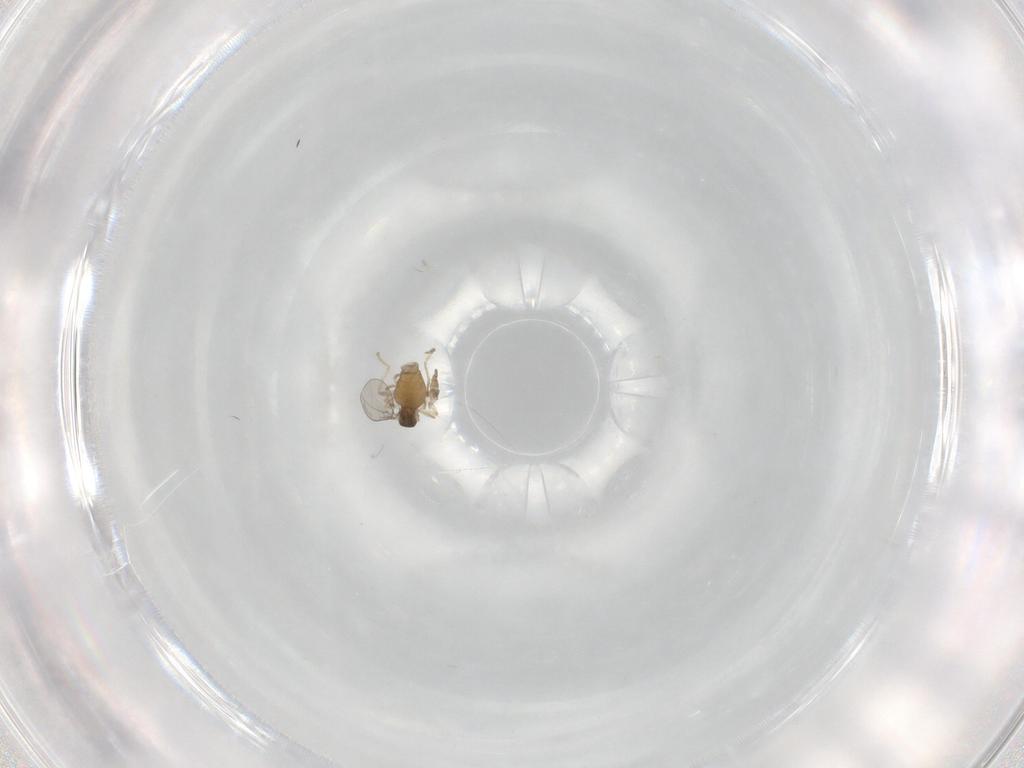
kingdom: Animalia
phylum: Arthropoda
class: Insecta
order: Diptera
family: Cecidomyiidae
